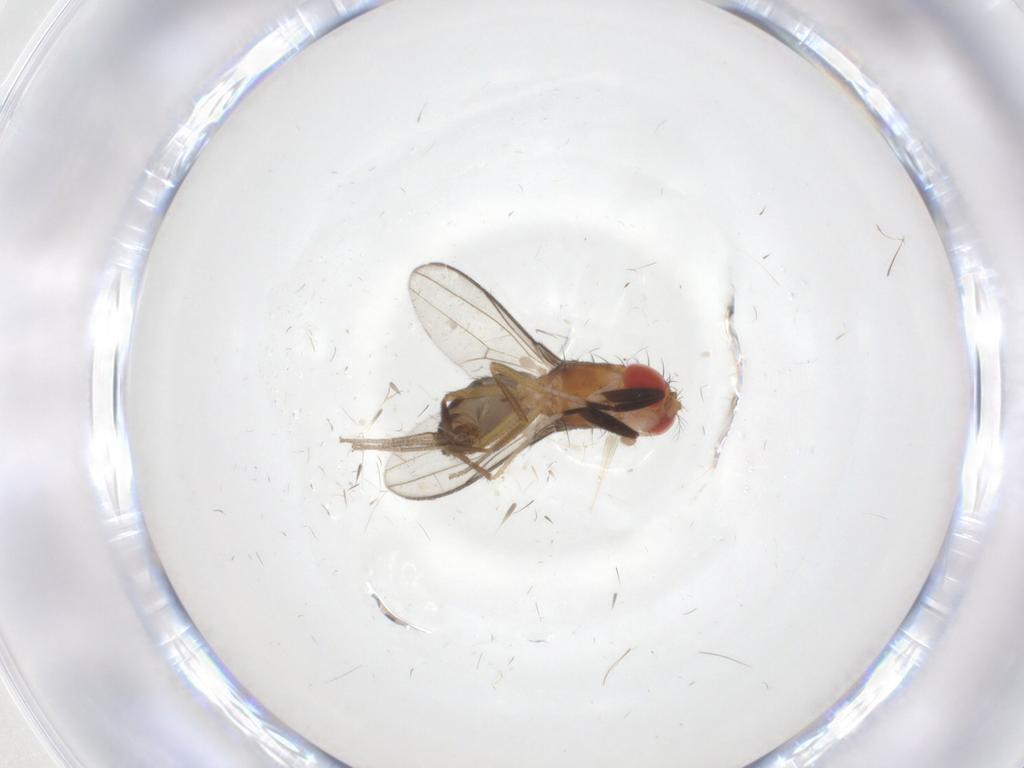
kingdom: Animalia
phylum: Arthropoda
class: Insecta
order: Diptera
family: Drosophilidae
